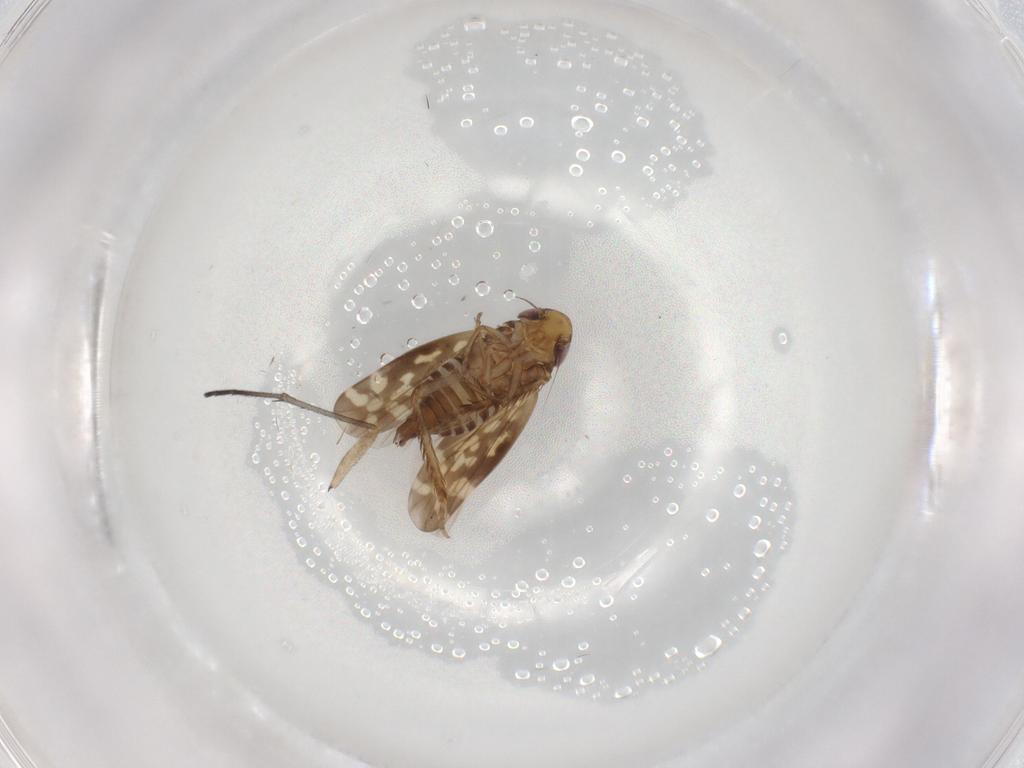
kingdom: Animalia
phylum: Arthropoda
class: Insecta
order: Hemiptera
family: Cicadellidae
